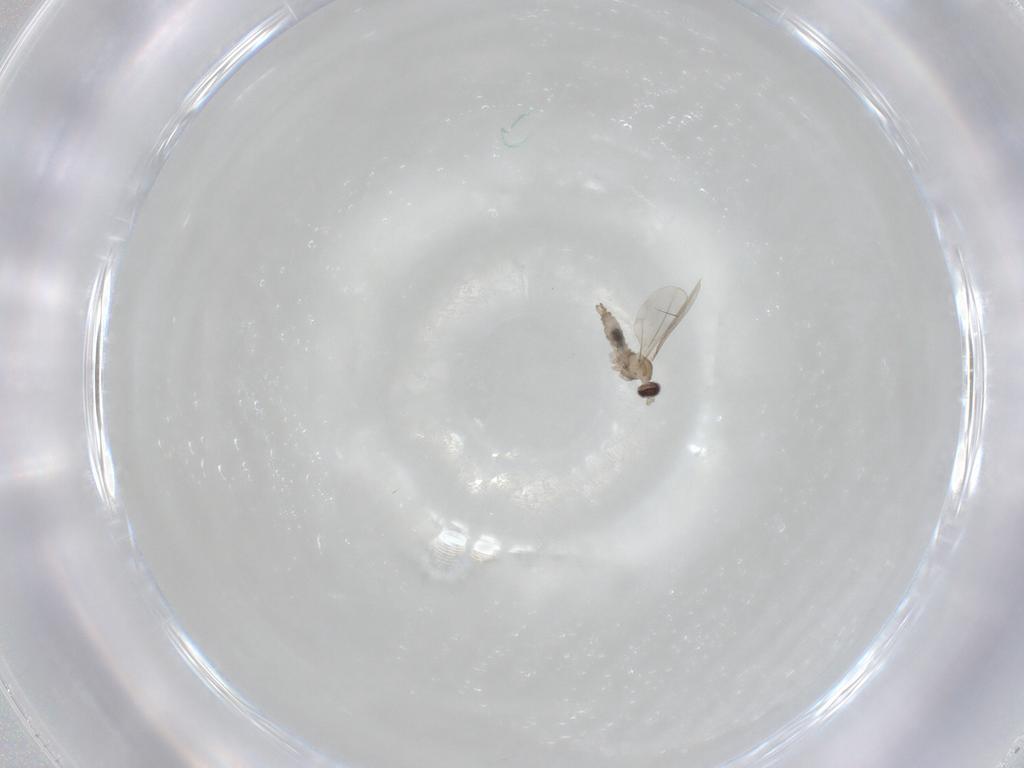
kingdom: Animalia
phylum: Arthropoda
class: Insecta
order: Diptera
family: Cecidomyiidae
